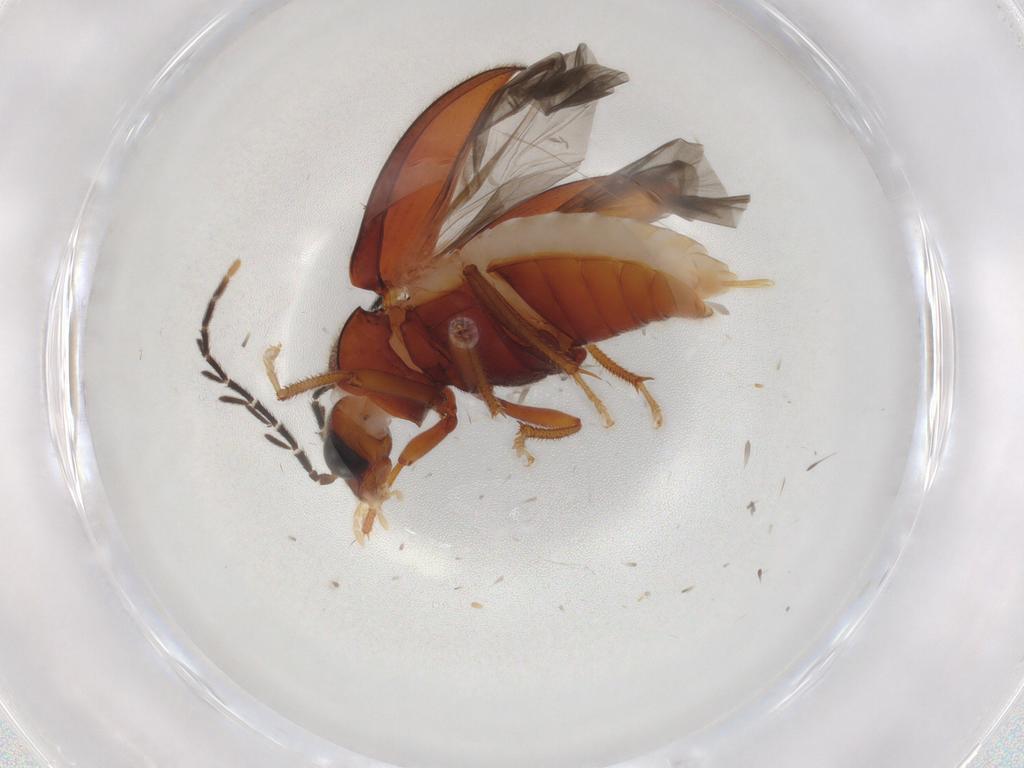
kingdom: Animalia
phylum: Arthropoda
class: Insecta
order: Coleoptera
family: Ptilodactylidae
